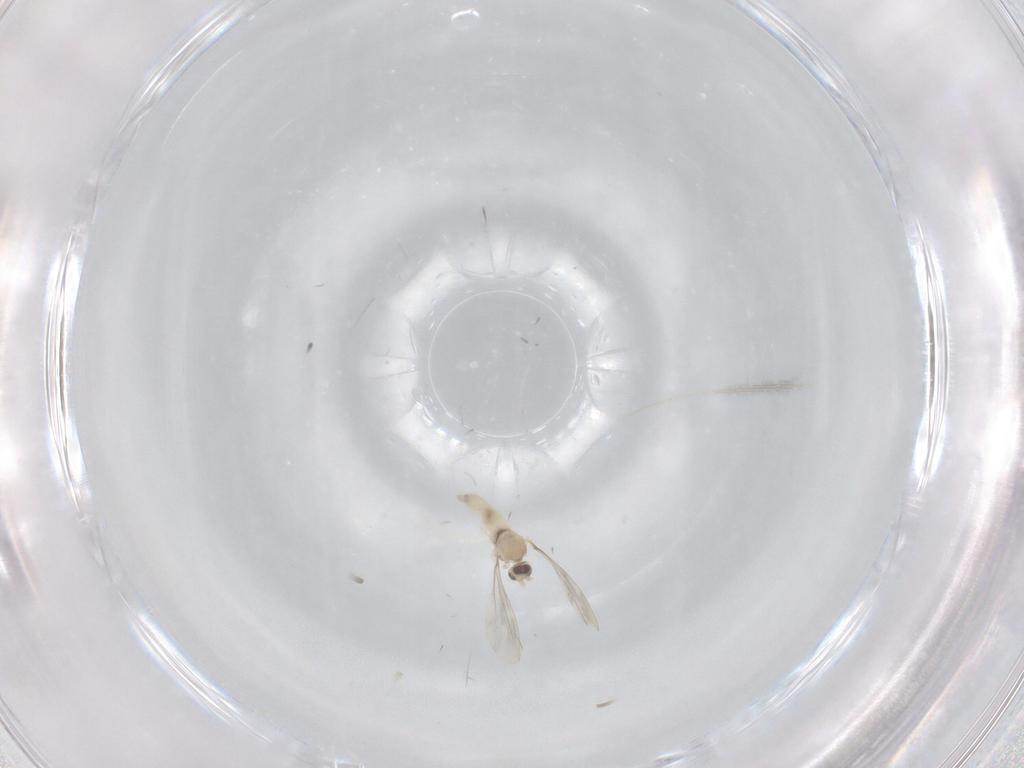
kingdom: Animalia
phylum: Arthropoda
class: Insecta
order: Diptera
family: Cecidomyiidae
